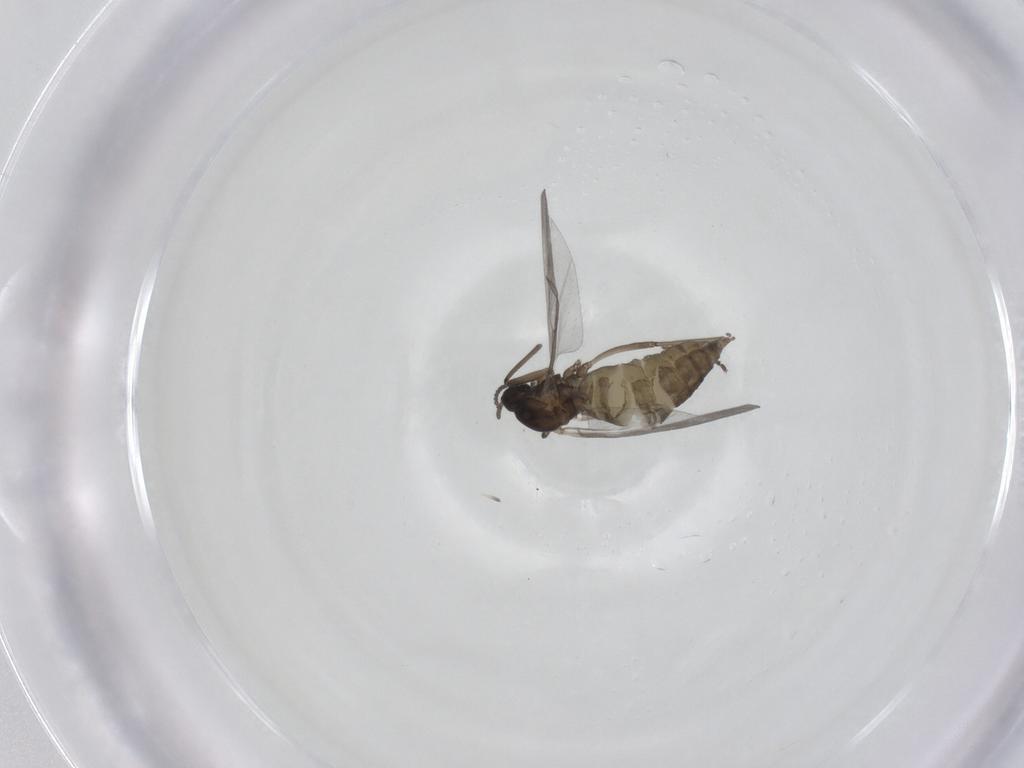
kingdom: Animalia
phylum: Arthropoda
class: Insecta
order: Diptera
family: Cecidomyiidae
